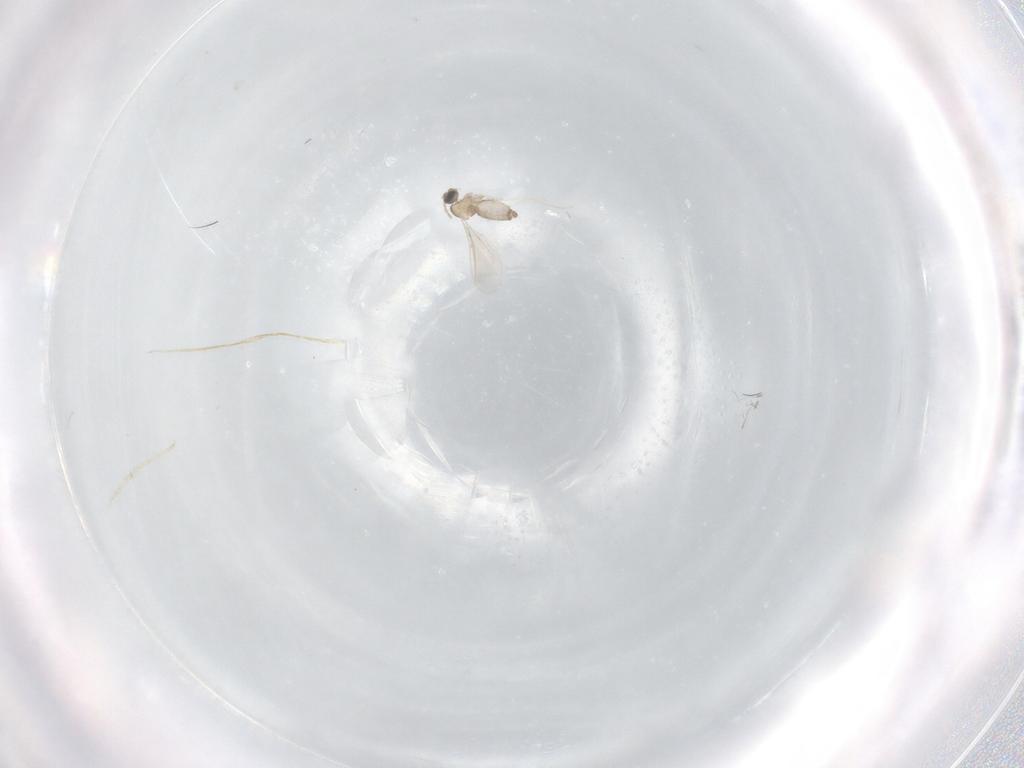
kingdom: Animalia
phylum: Arthropoda
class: Insecta
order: Diptera
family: Cecidomyiidae
